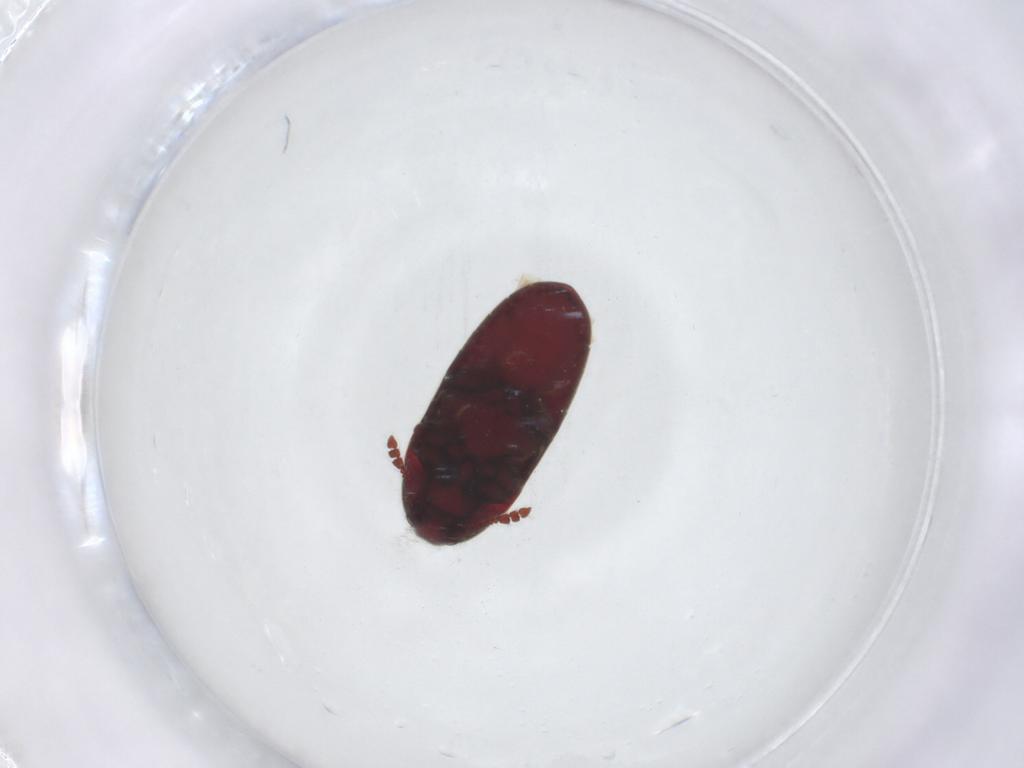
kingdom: Animalia
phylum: Arthropoda
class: Insecta
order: Coleoptera
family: Throscidae
